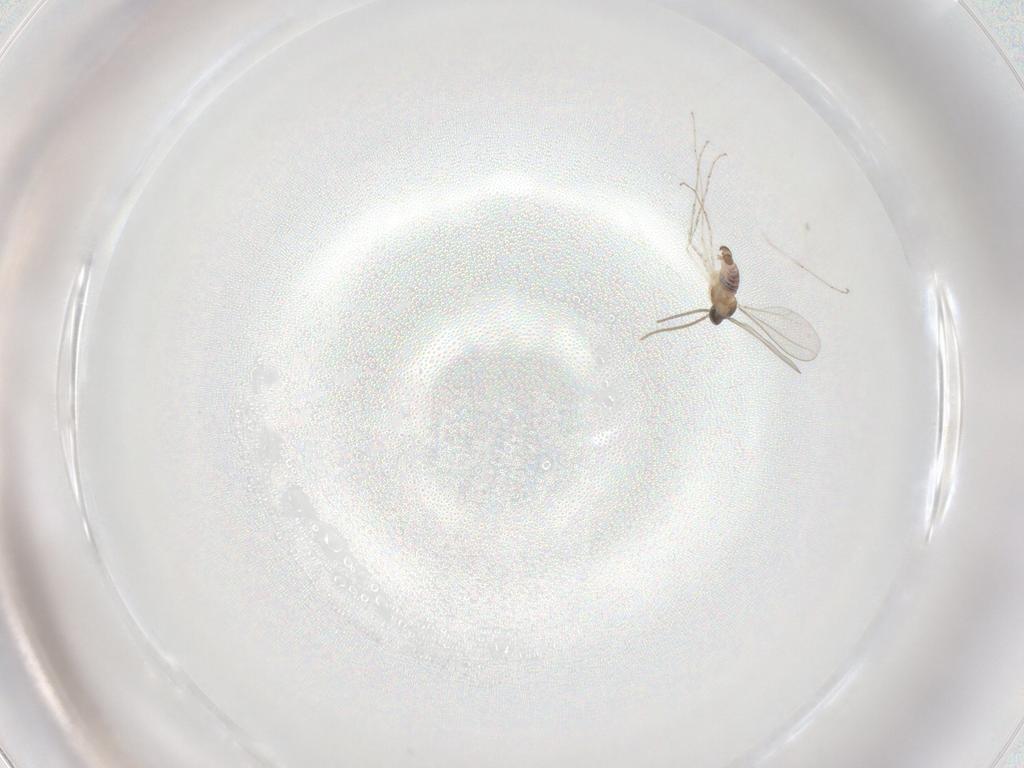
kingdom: Animalia
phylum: Arthropoda
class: Insecta
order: Diptera
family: Cecidomyiidae
